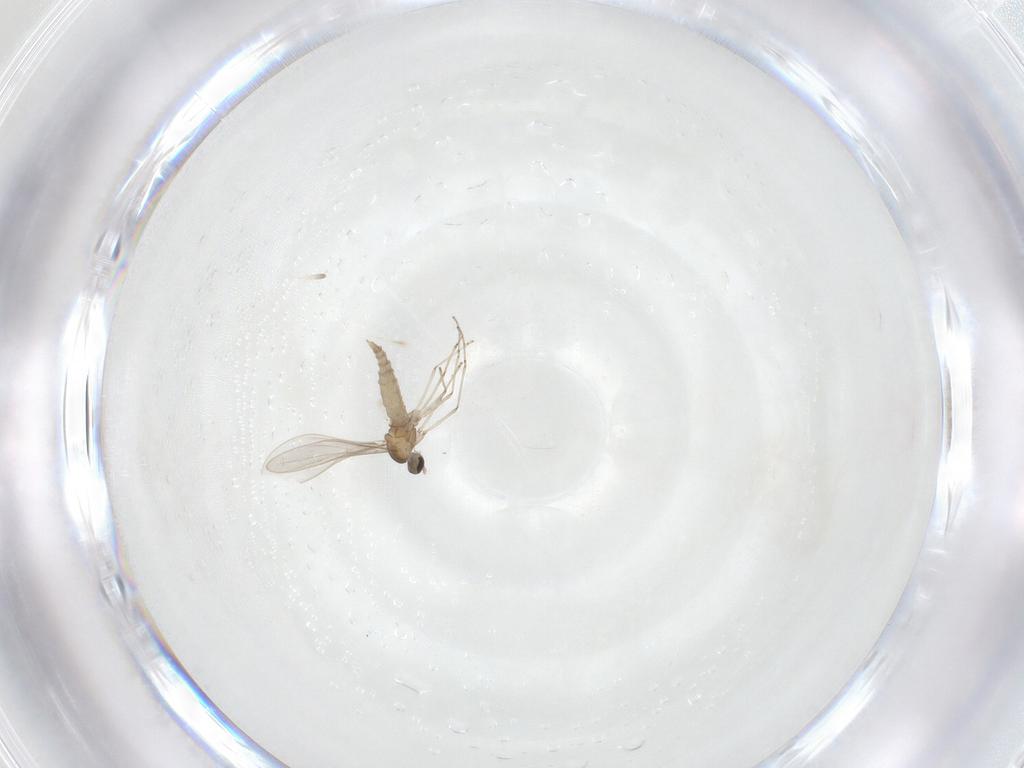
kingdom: Animalia
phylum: Arthropoda
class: Insecta
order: Diptera
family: Cecidomyiidae
